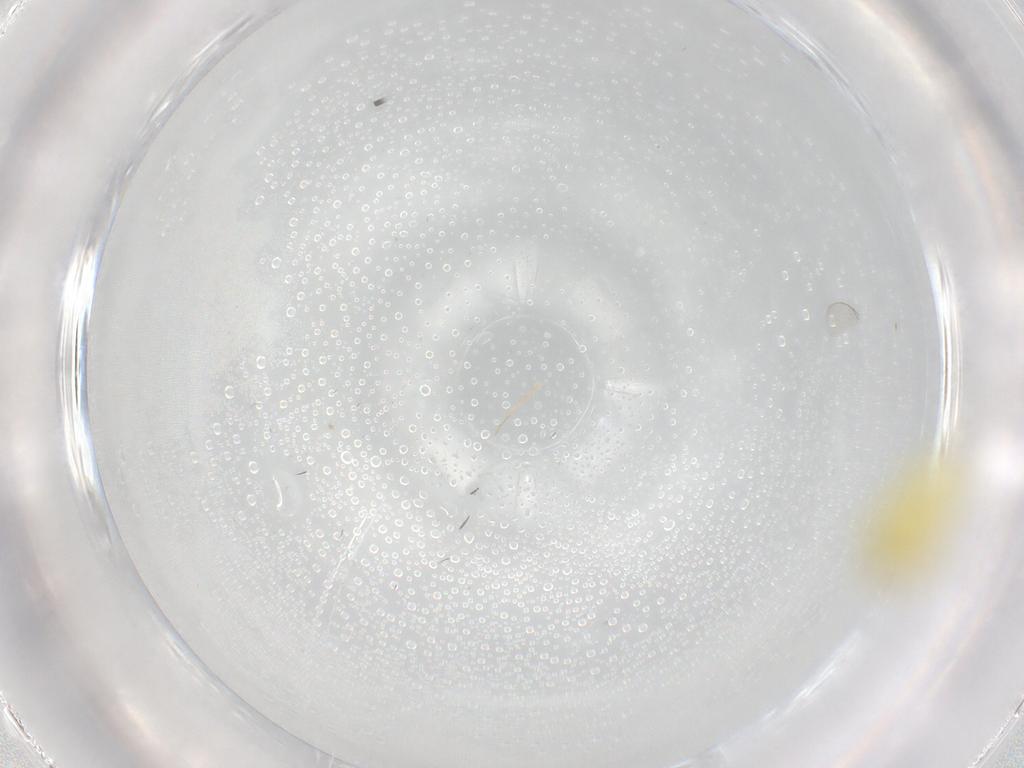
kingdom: Animalia
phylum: Arthropoda
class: Insecta
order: Diptera
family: Phoridae
